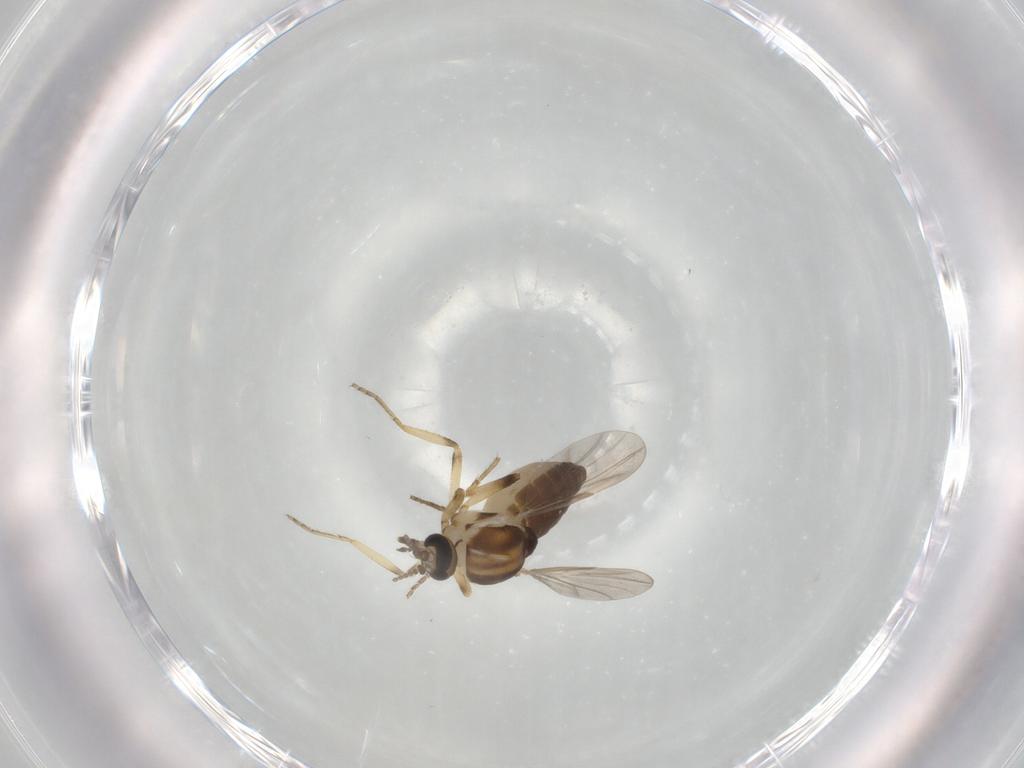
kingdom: Animalia
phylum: Arthropoda
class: Insecta
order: Diptera
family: Ceratopogonidae
